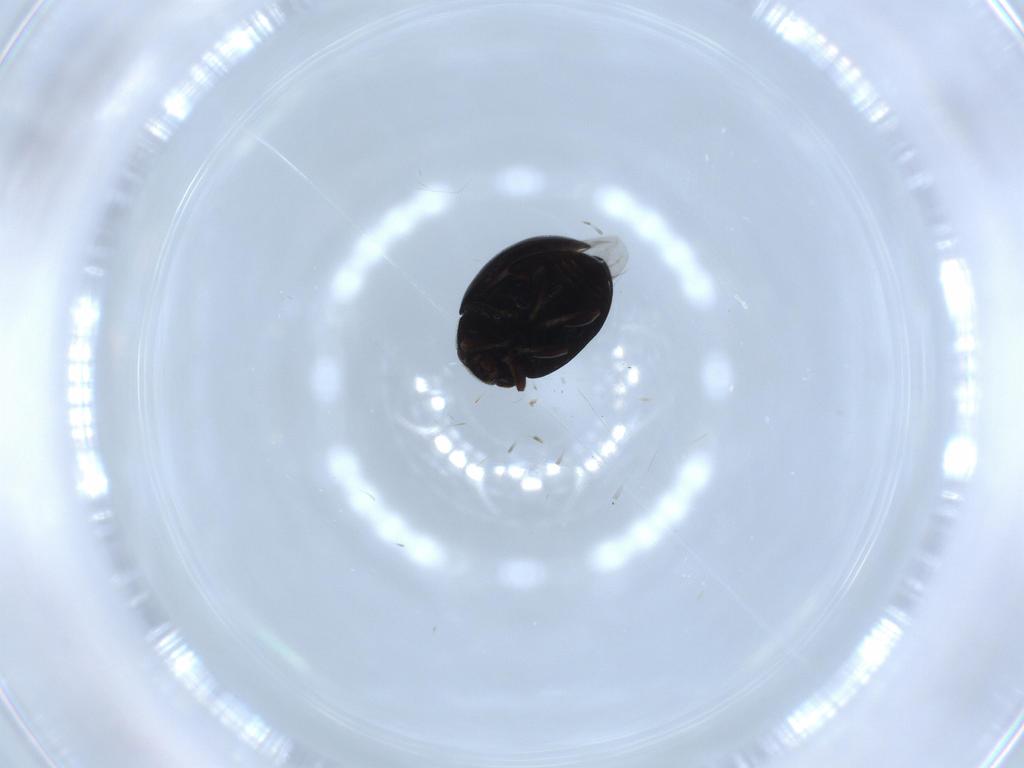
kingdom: Animalia
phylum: Arthropoda
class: Insecta
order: Coleoptera
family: Coccinellidae
